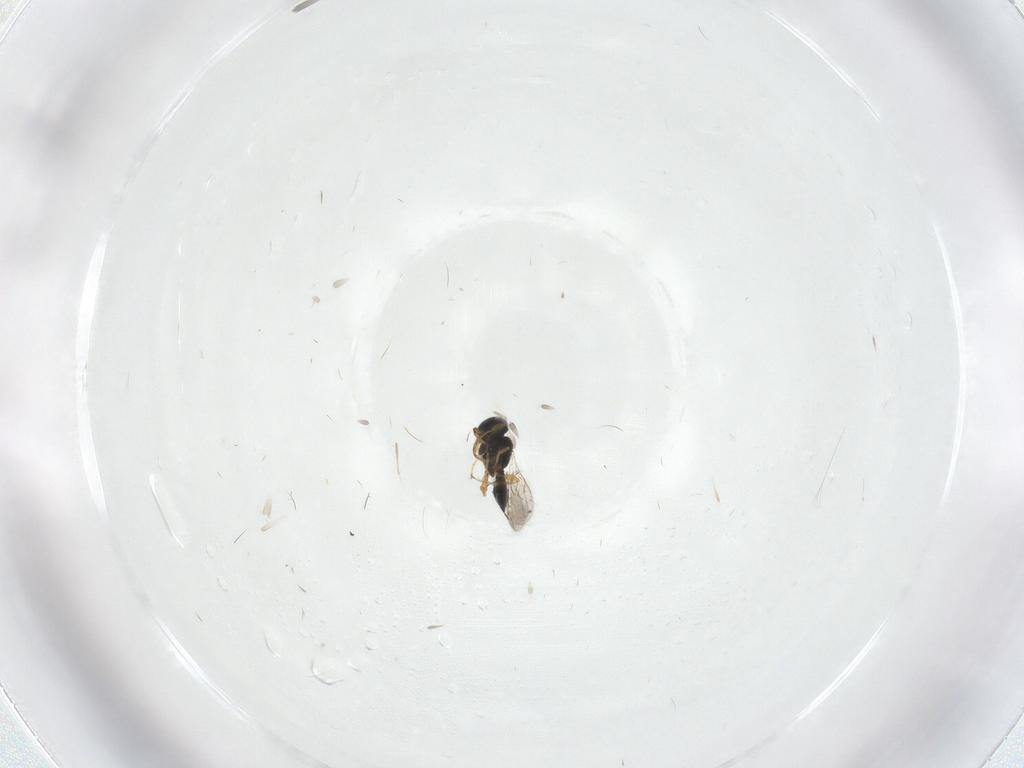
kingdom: Animalia
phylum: Arthropoda
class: Insecta
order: Hymenoptera
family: Scelionidae
